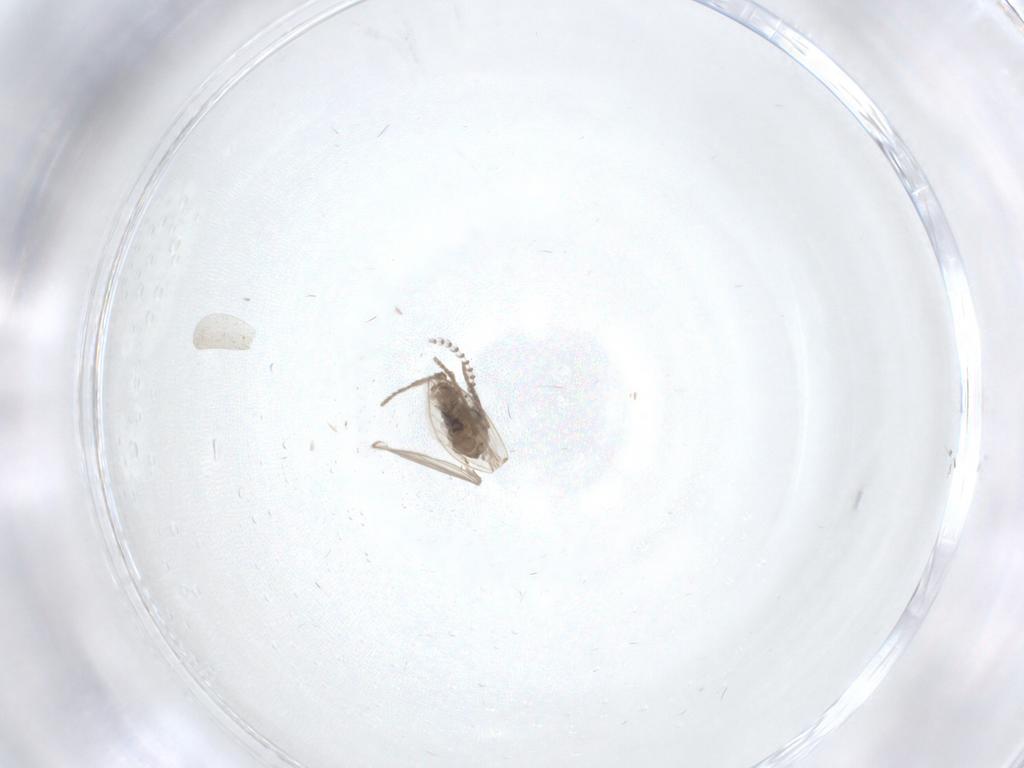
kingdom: Animalia
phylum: Arthropoda
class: Insecta
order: Diptera
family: Psychodidae
